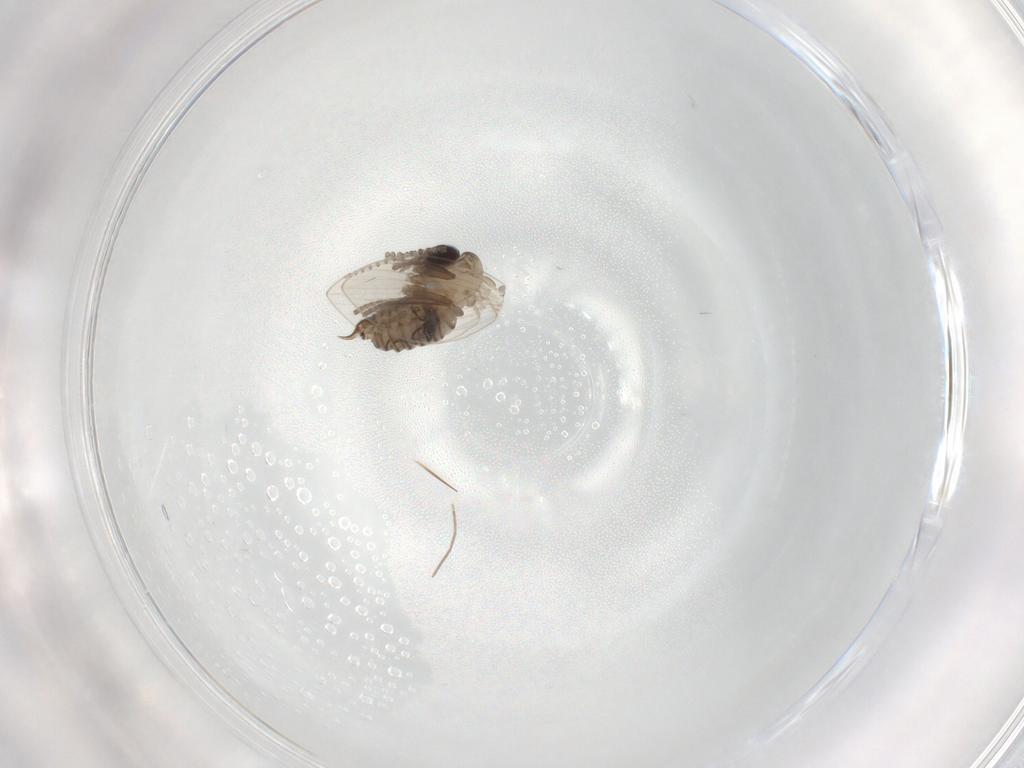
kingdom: Animalia
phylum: Arthropoda
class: Insecta
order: Diptera
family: Psychodidae
